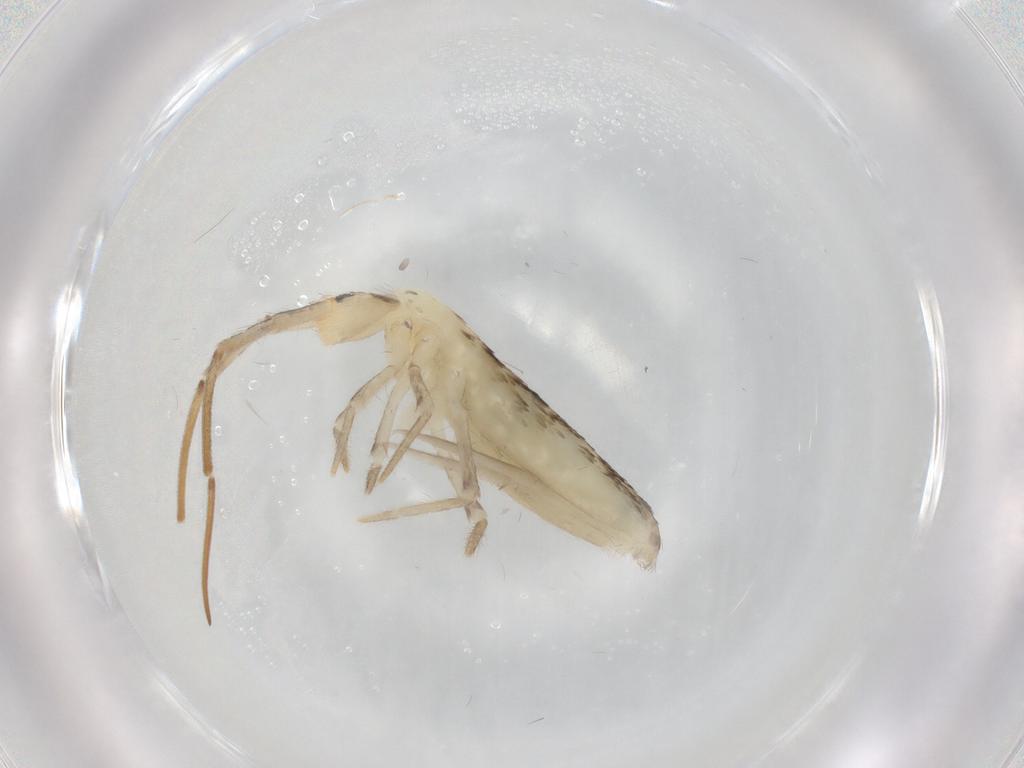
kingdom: Animalia
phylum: Arthropoda
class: Collembola
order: Poduromorpha
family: Hypogastruridae
